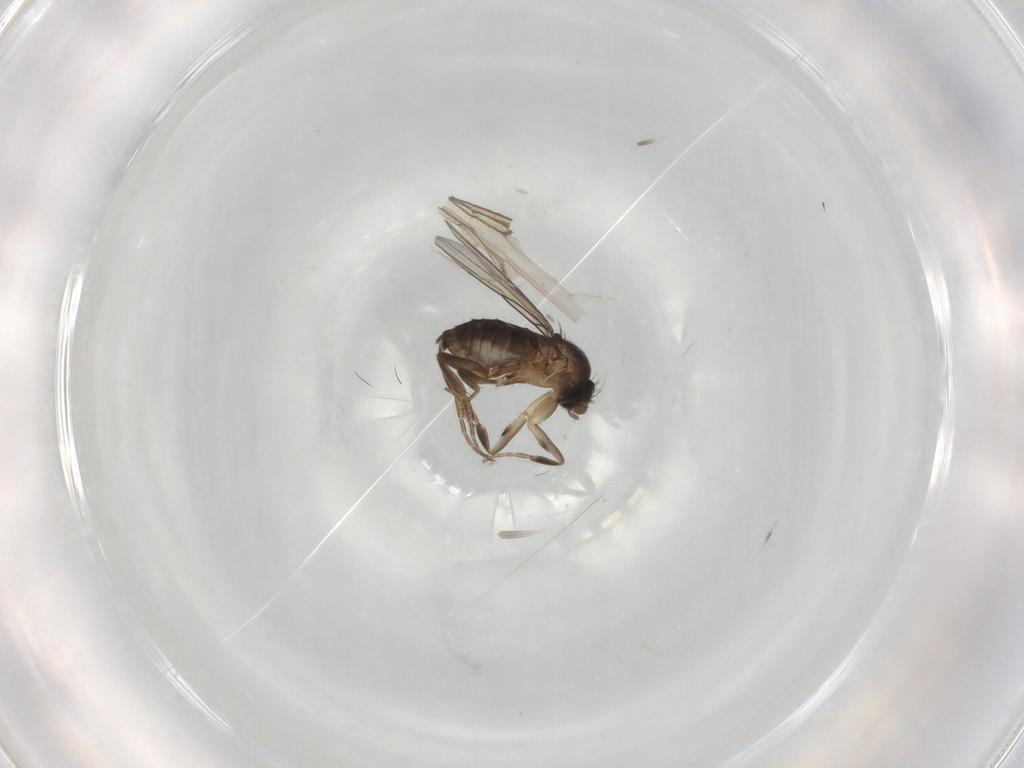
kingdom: Animalia
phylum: Arthropoda
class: Insecta
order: Diptera
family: Phoridae
